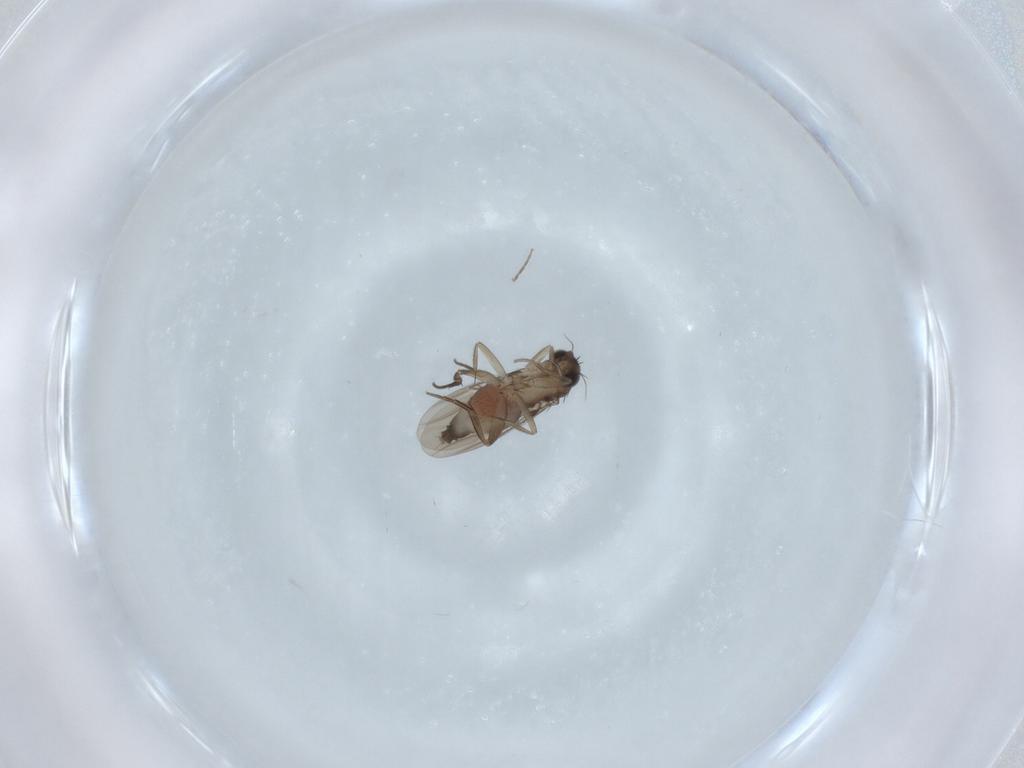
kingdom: Animalia
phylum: Arthropoda
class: Insecta
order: Diptera
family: Phoridae
